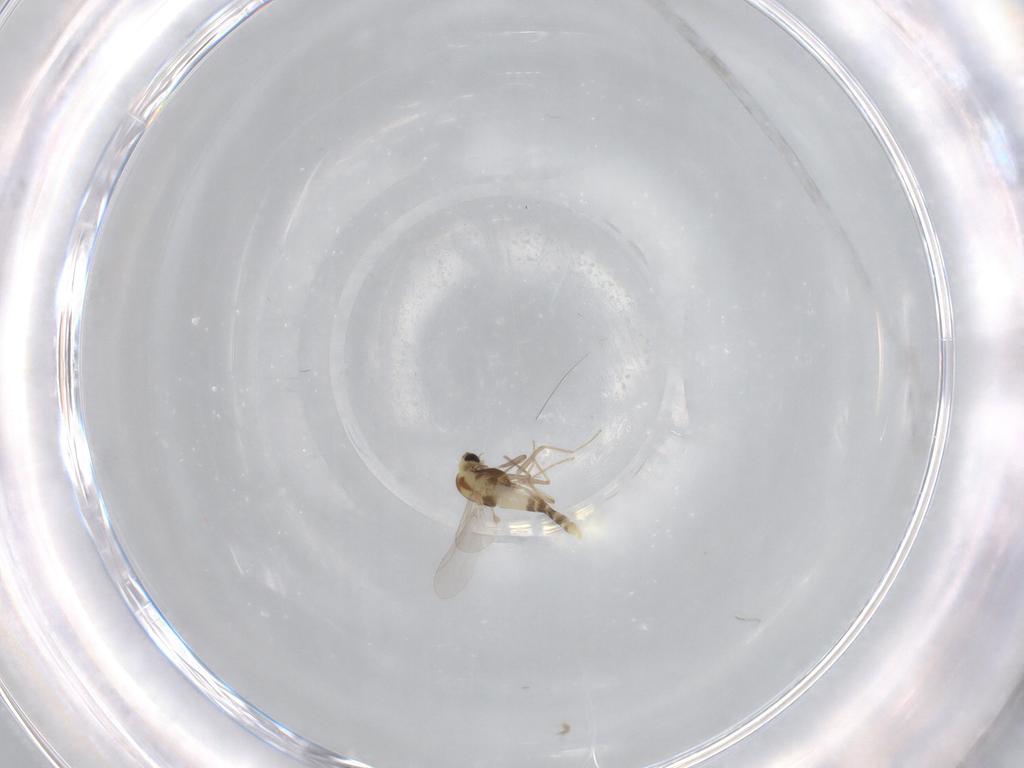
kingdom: Animalia
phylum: Arthropoda
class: Insecta
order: Diptera
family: Chironomidae
